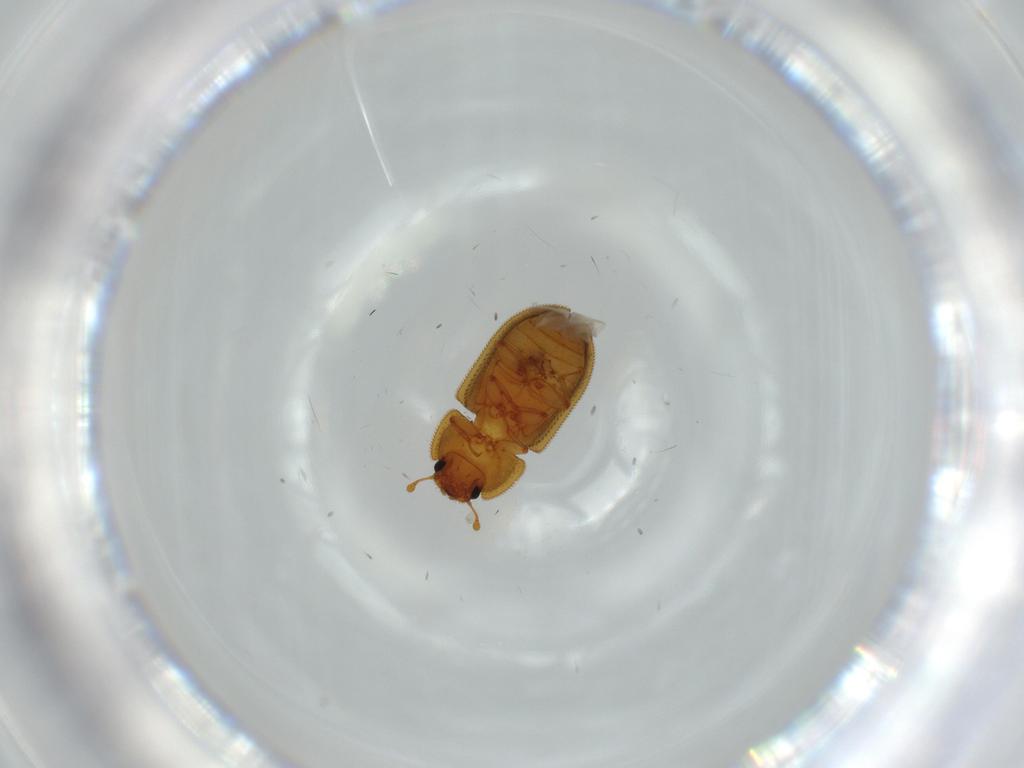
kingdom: Animalia
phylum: Arthropoda
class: Insecta
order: Coleoptera
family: Zopheridae
